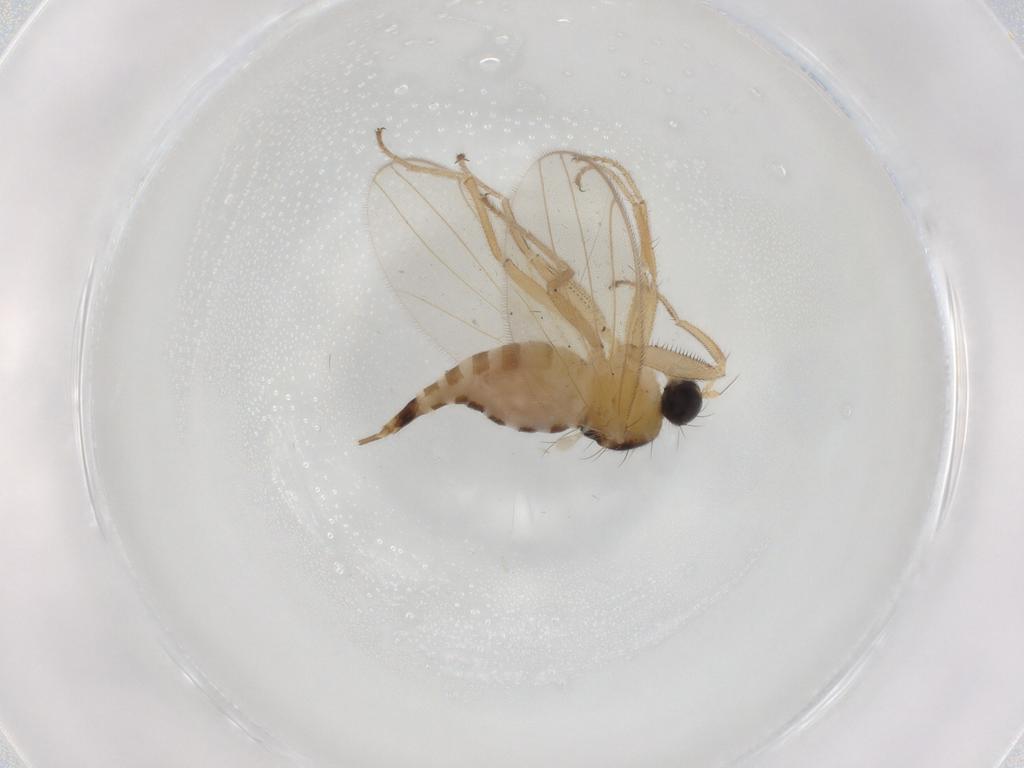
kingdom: Animalia
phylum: Arthropoda
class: Insecta
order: Diptera
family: Hybotidae
